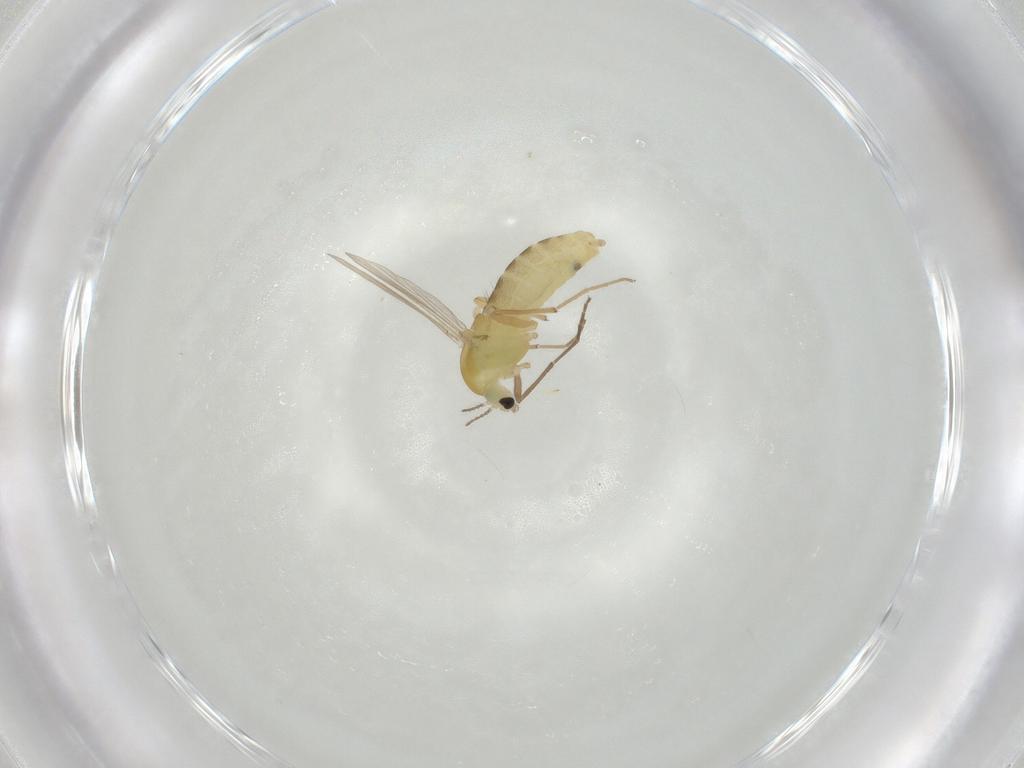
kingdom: Animalia
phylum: Arthropoda
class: Insecta
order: Diptera
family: Chironomidae
